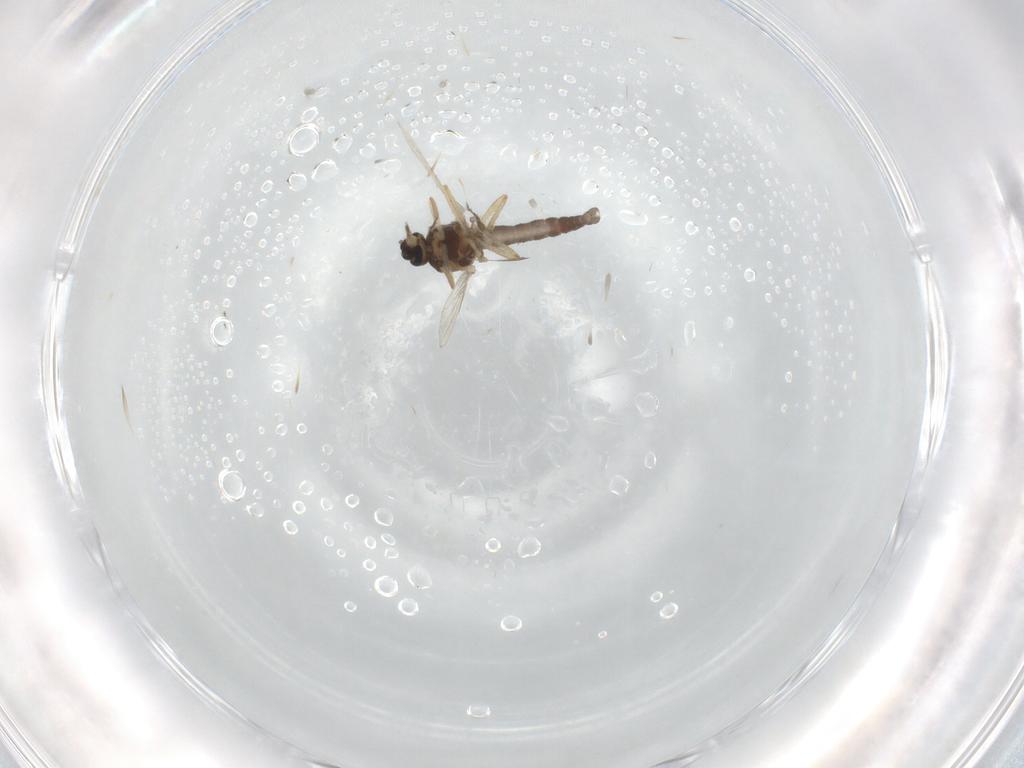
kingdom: Animalia
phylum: Arthropoda
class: Insecta
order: Diptera
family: Ceratopogonidae
